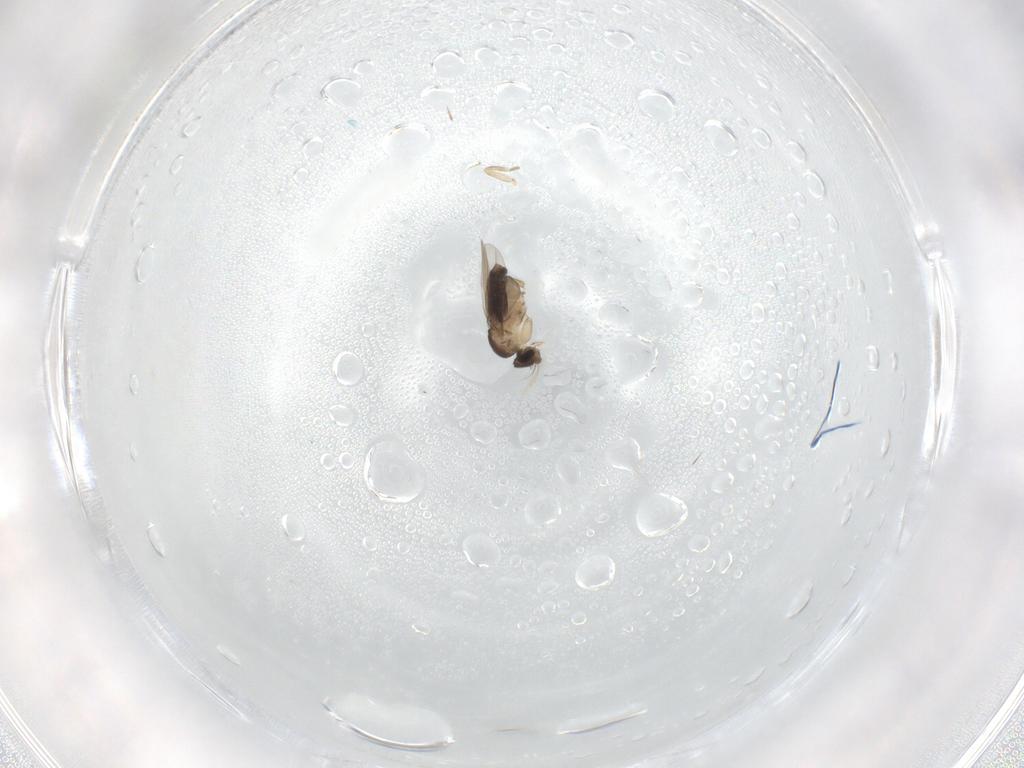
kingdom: Animalia
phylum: Arthropoda
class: Insecta
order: Diptera
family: Phoridae
